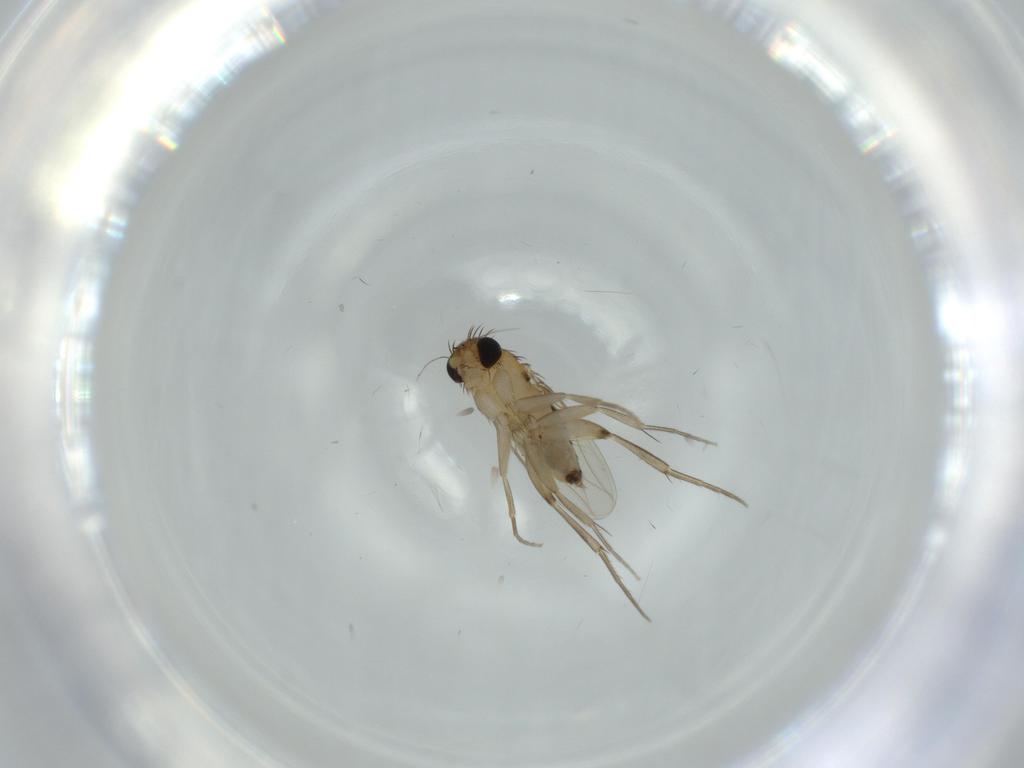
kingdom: Animalia
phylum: Arthropoda
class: Insecta
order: Diptera
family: Phoridae
